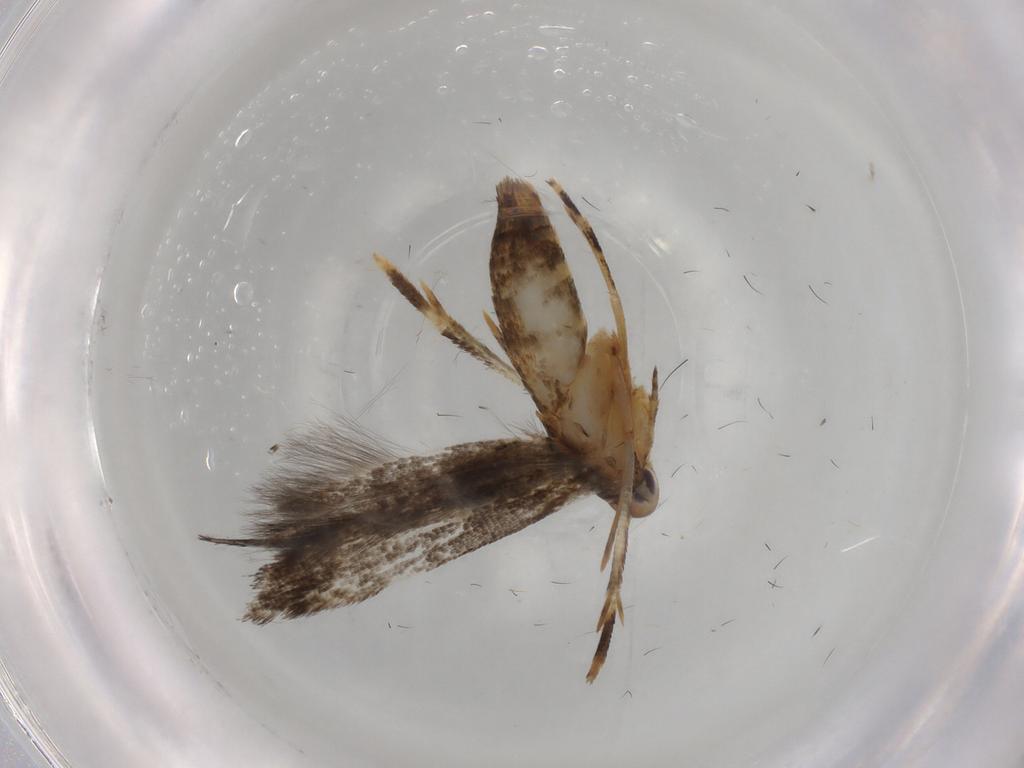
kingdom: Animalia
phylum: Arthropoda
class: Insecta
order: Lepidoptera
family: Momphidae
